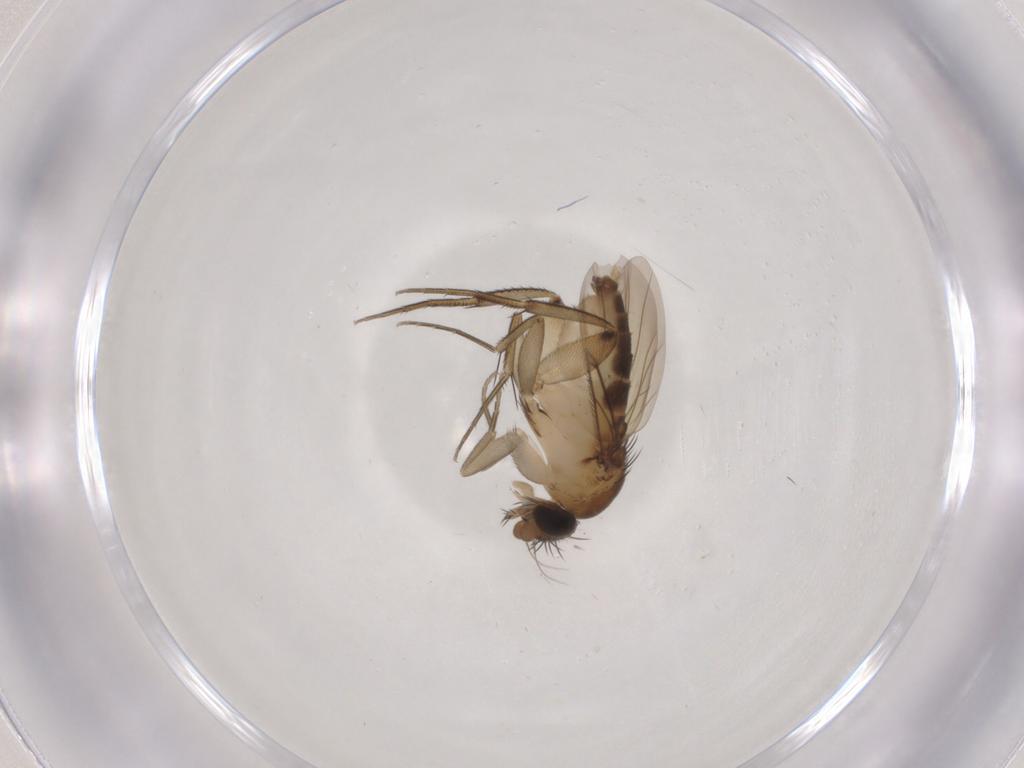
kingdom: Animalia
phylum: Arthropoda
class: Insecta
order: Diptera
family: Phoridae
